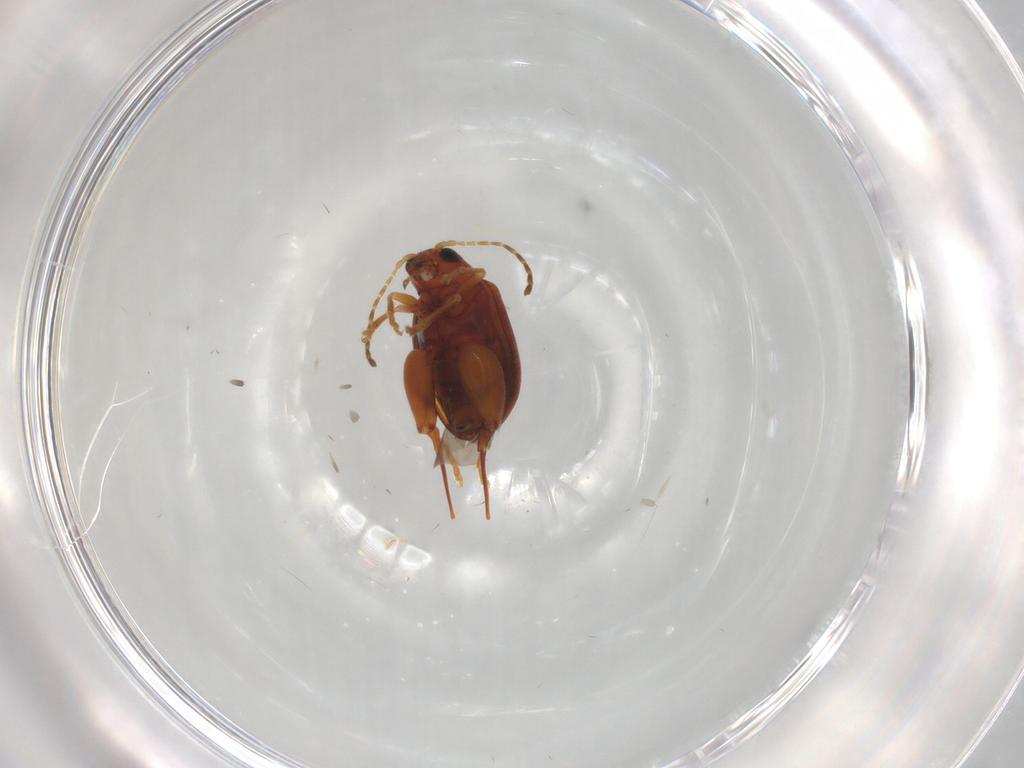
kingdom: Animalia
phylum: Arthropoda
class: Insecta
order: Coleoptera
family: Chrysomelidae
